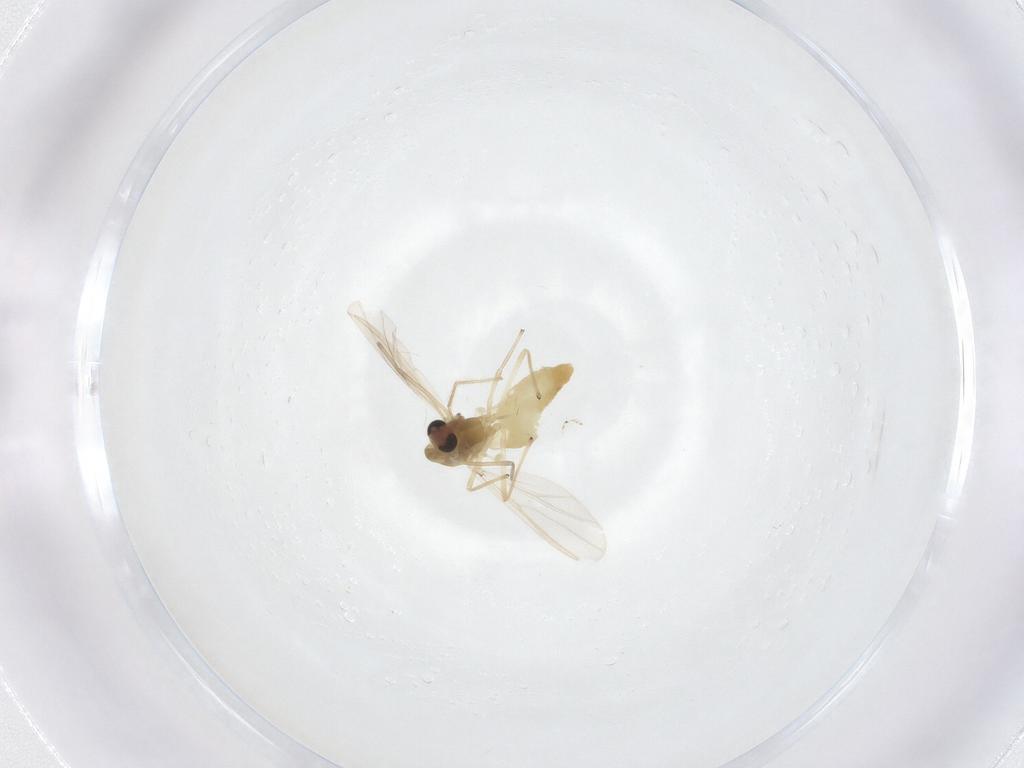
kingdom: Animalia
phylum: Arthropoda
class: Insecta
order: Diptera
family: Chironomidae
